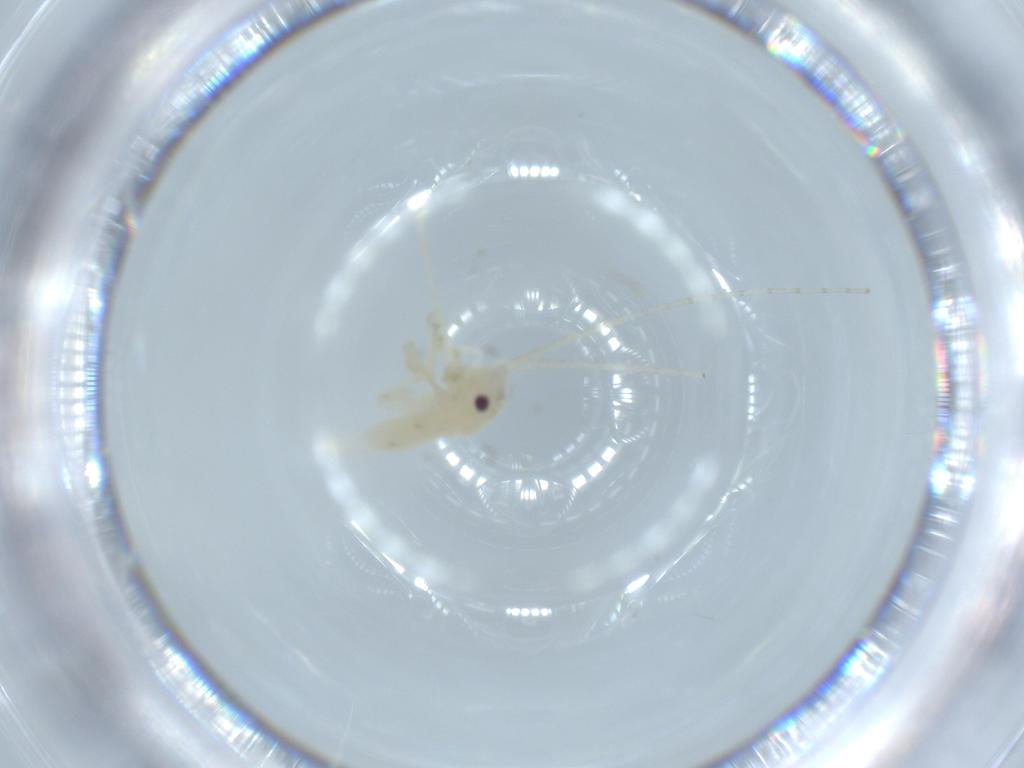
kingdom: Animalia
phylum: Arthropoda
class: Insecta
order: Orthoptera
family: Trigonidiidae
